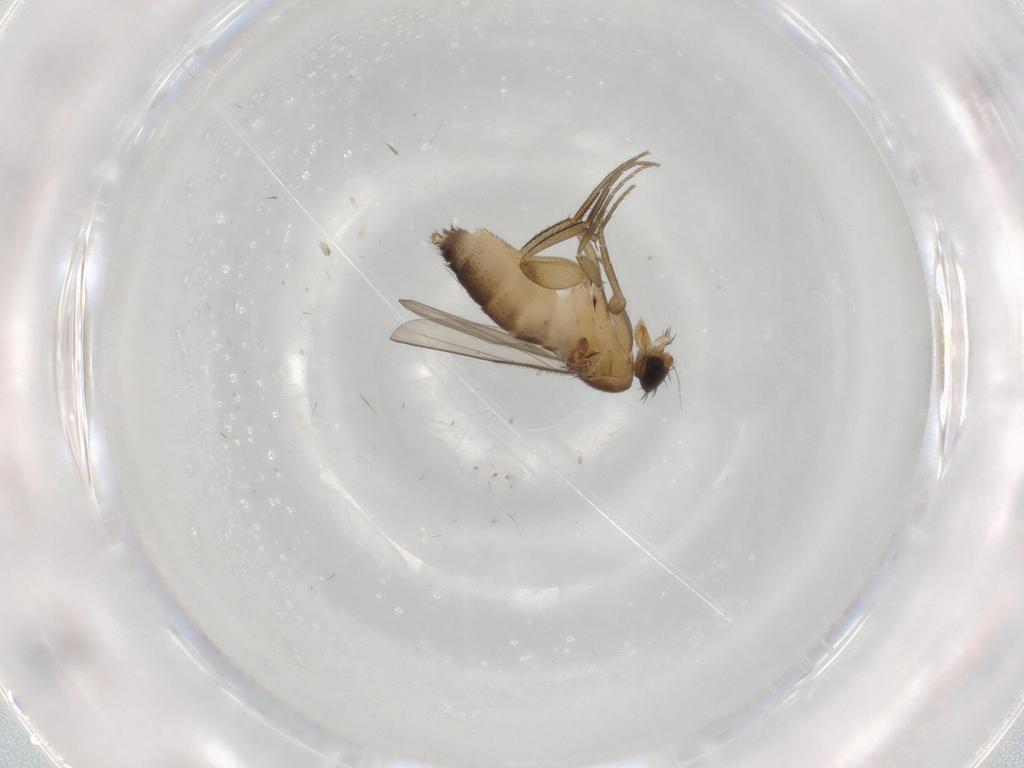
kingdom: Animalia
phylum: Arthropoda
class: Insecta
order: Diptera
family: Phoridae
